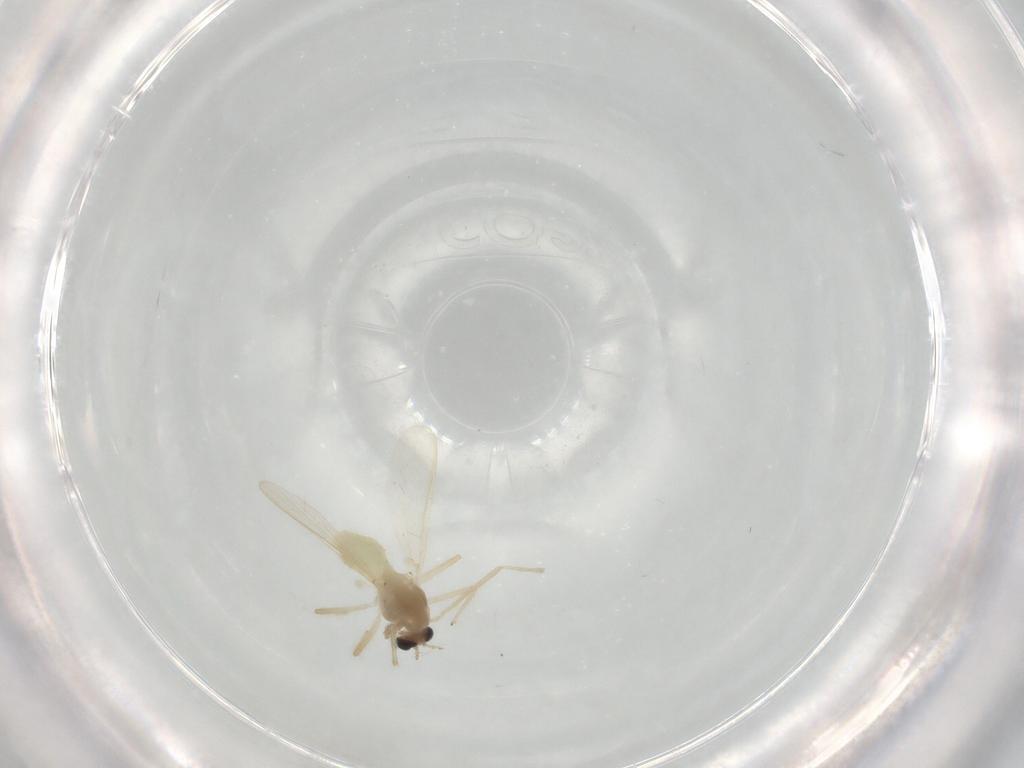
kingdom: Animalia
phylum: Arthropoda
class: Insecta
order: Diptera
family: Chironomidae
